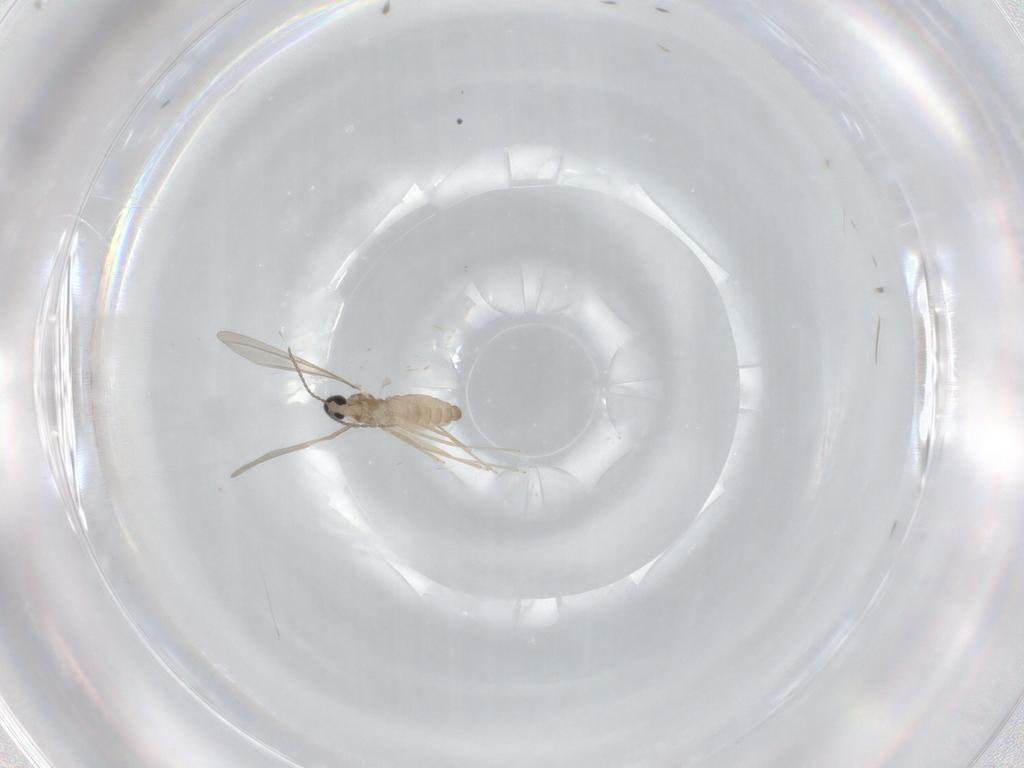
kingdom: Animalia
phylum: Arthropoda
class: Insecta
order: Diptera
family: Cecidomyiidae
